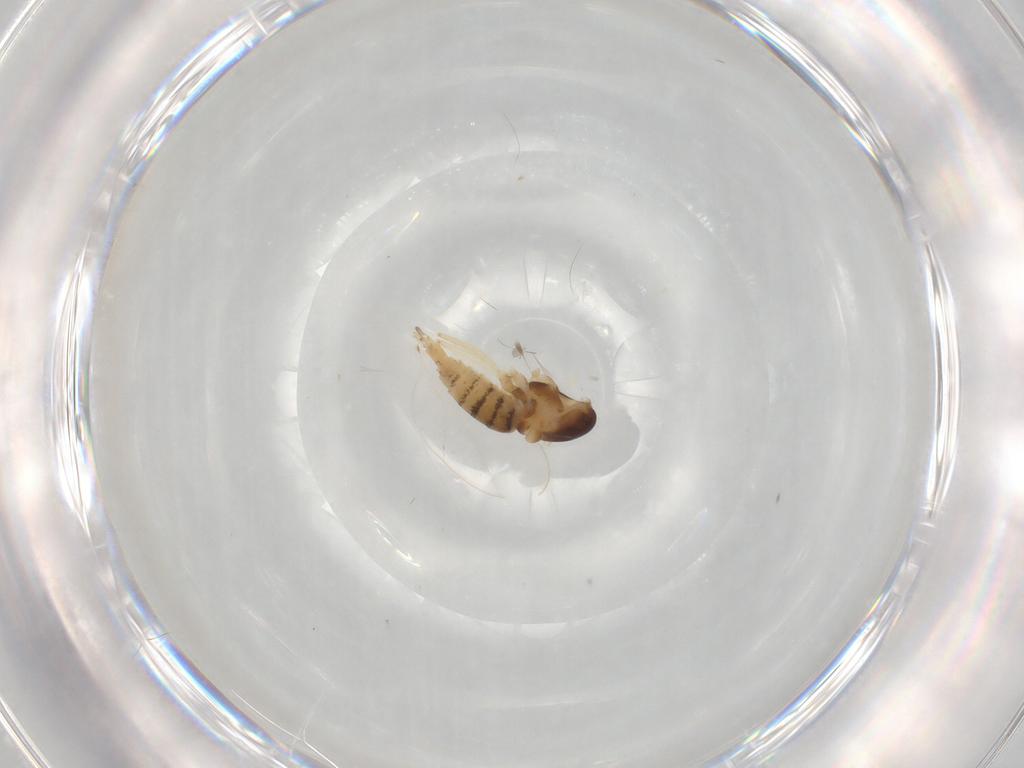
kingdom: Animalia
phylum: Arthropoda
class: Insecta
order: Diptera
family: Cecidomyiidae
